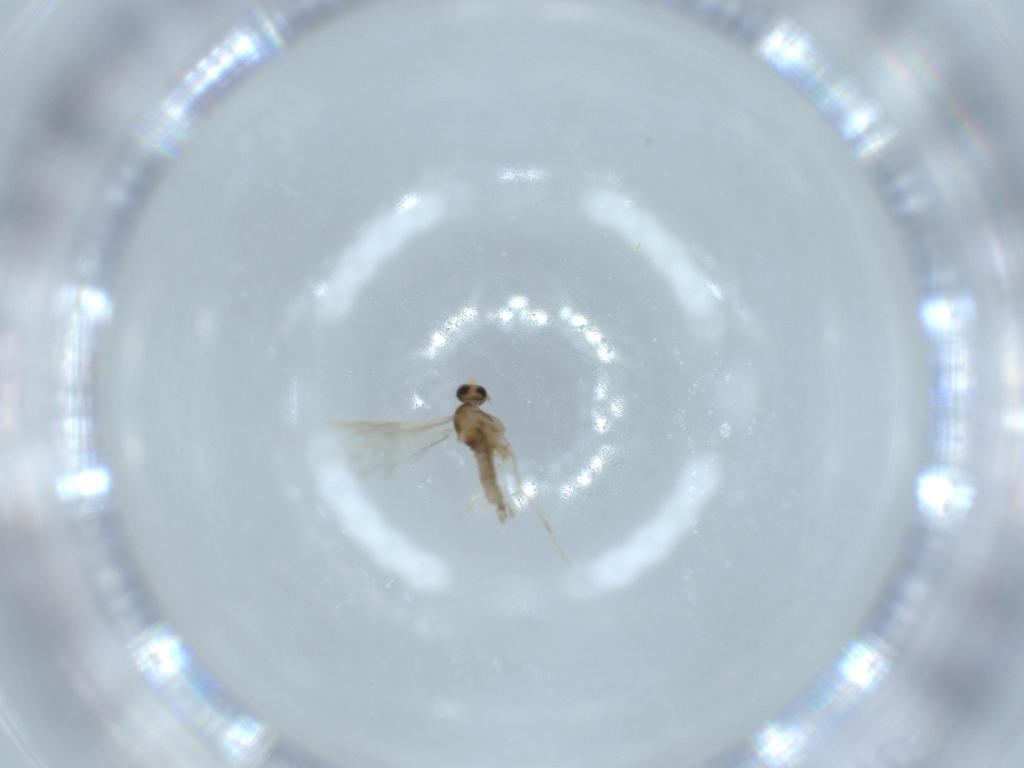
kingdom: Animalia
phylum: Arthropoda
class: Insecta
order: Diptera
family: Cecidomyiidae
